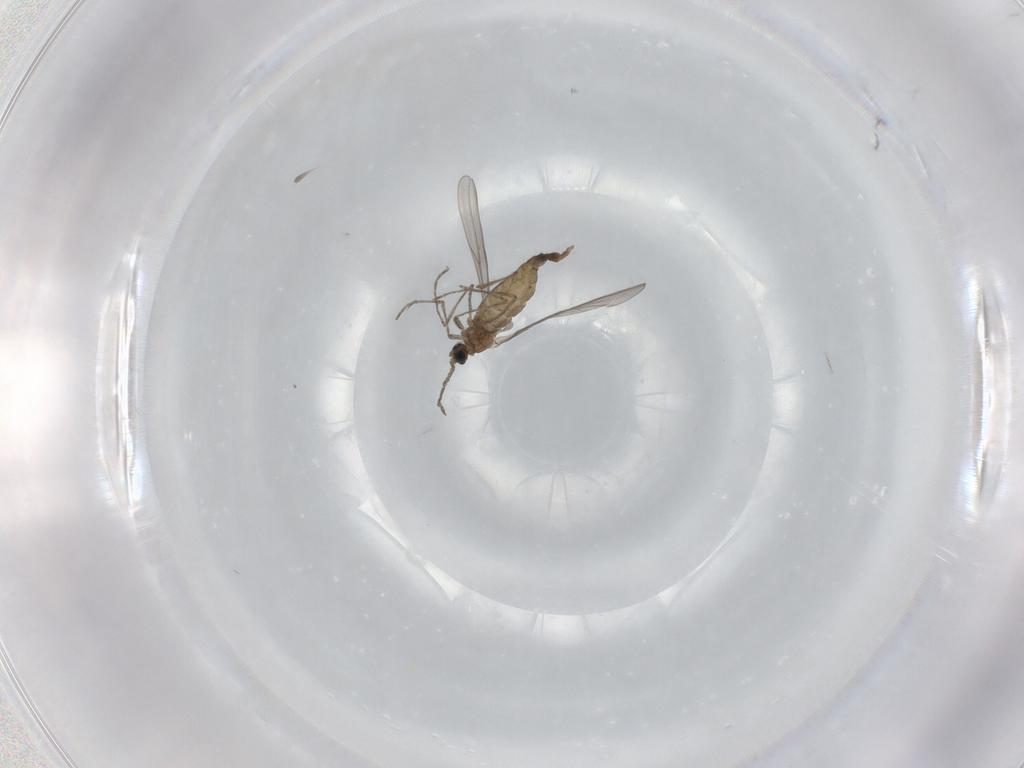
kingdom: Animalia
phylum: Arthropoda
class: Insecta
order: Diptera
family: Cecidomyiidae
